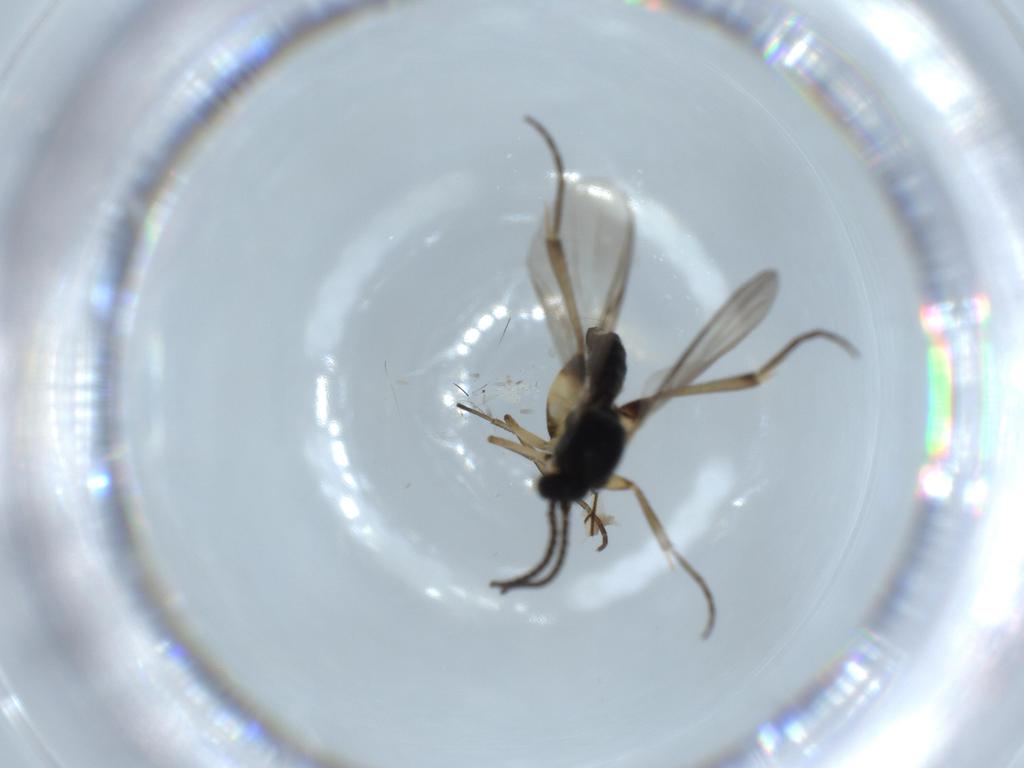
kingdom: Animalia
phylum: Arthropoda
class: Insecta
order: Diptera
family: Mycetophilidae
